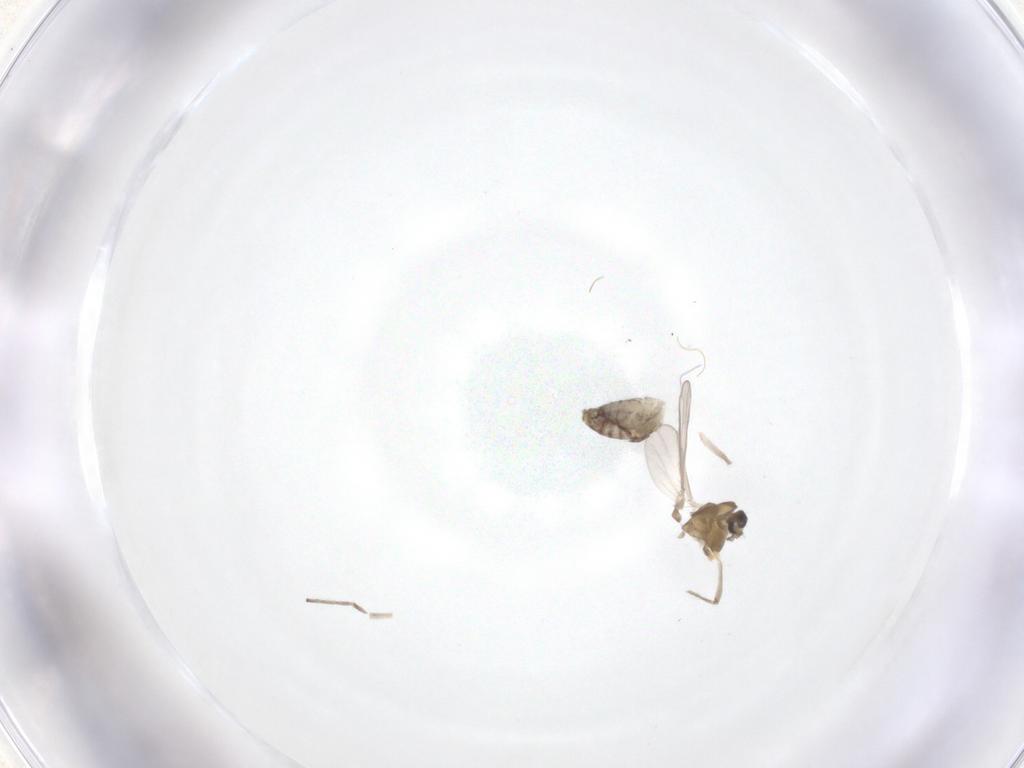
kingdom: Animalia
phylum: Arthropoda
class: Insecta
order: Diptera
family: Chironomidae
